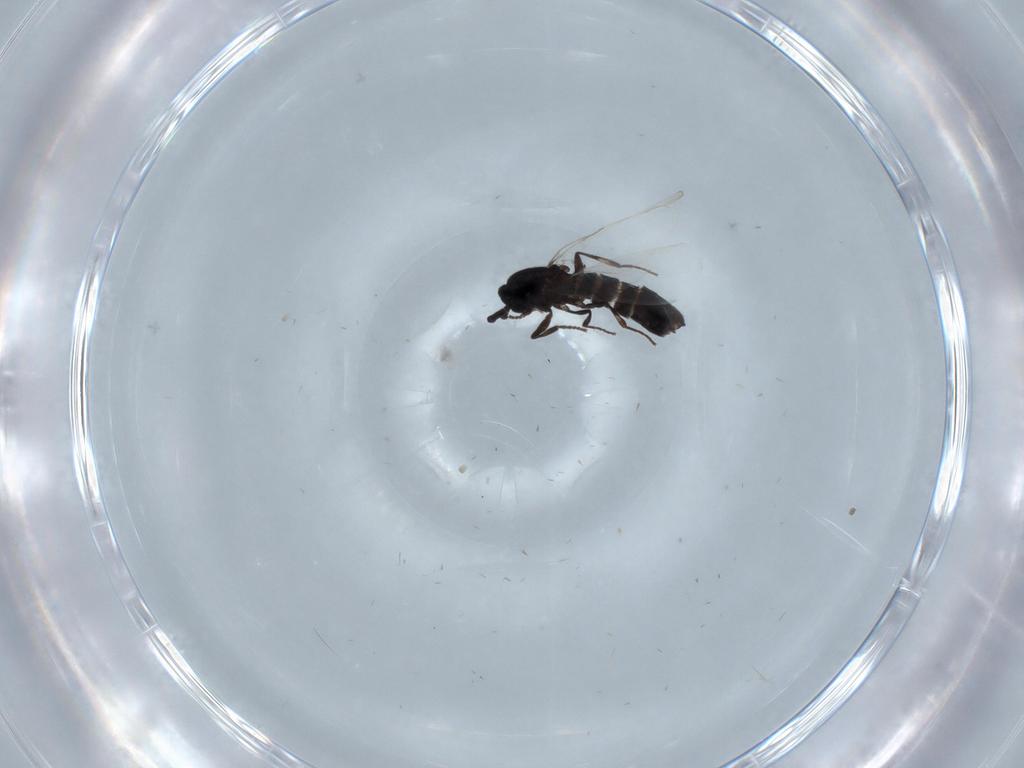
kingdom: Animalia
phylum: Arthropoda
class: Insecta
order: Diptera
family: Scatopsidae
